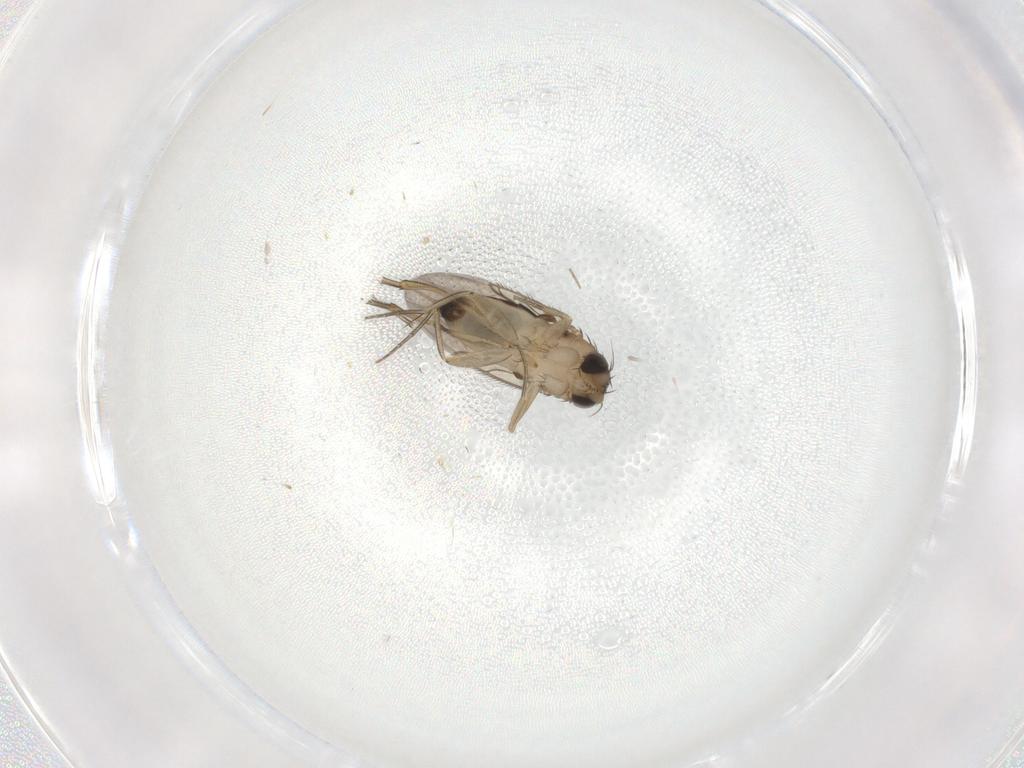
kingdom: Animalia
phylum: Arthropoda
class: Insecta
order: Diptera
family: Phoridae
